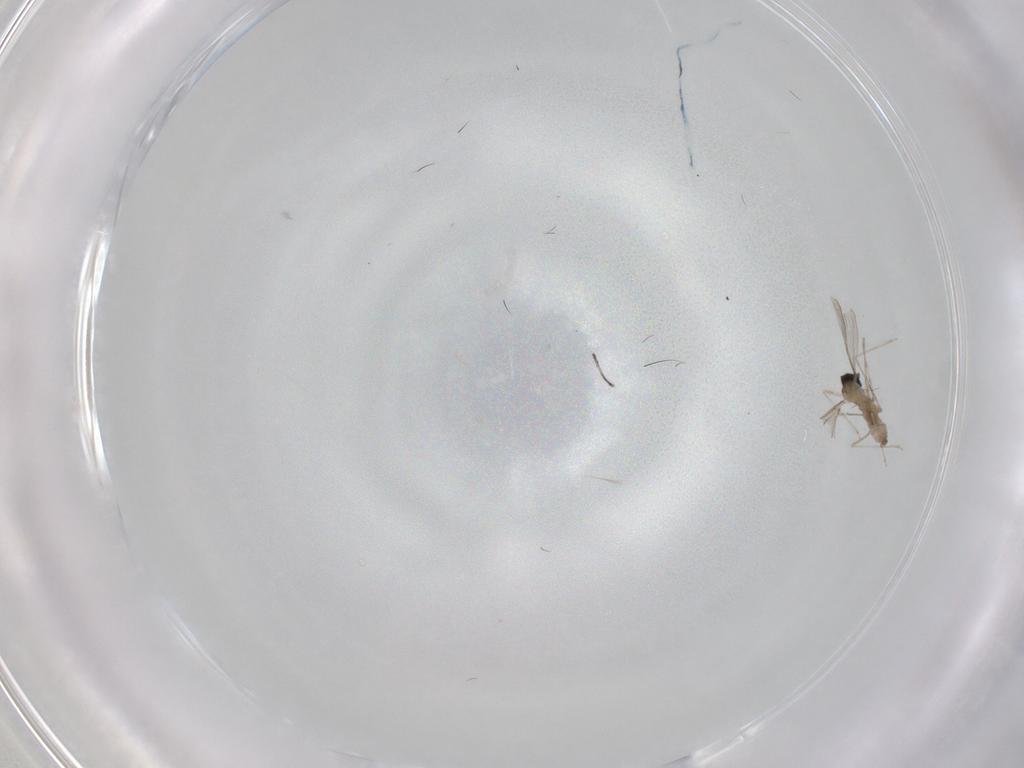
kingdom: Animalia
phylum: Arthropoda
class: Insecta
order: Diptera
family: Cecidomyiidae
